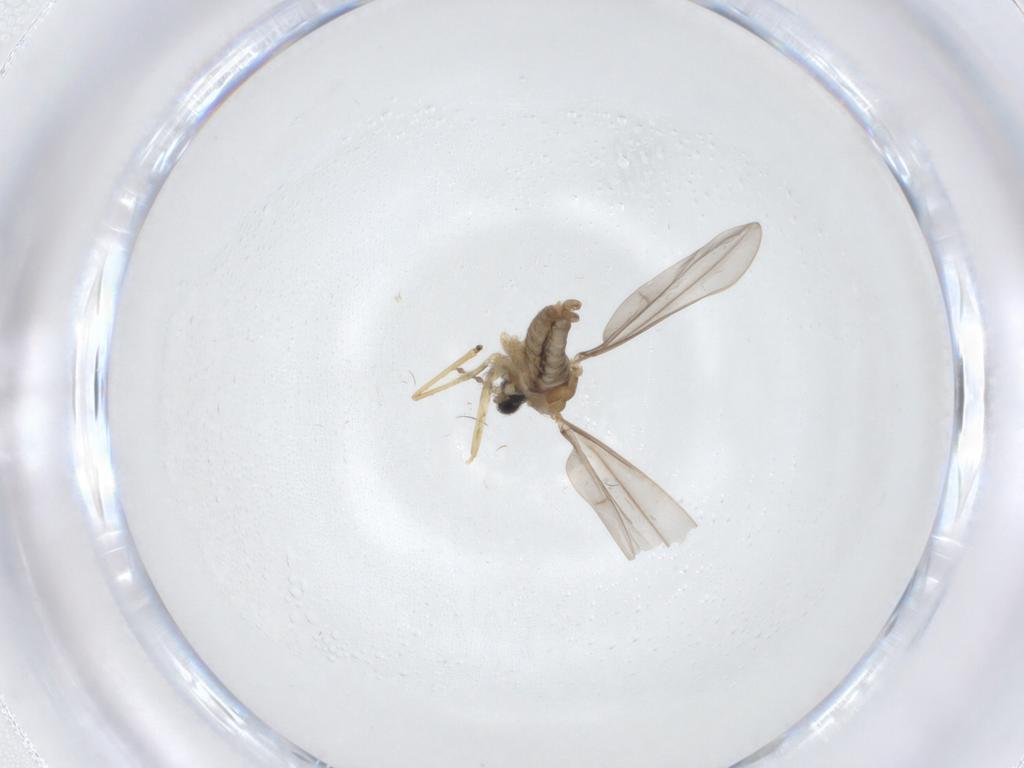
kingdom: Animalia
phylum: Arthropoda
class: Insecta
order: Diptera
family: Cecidomyiidae
